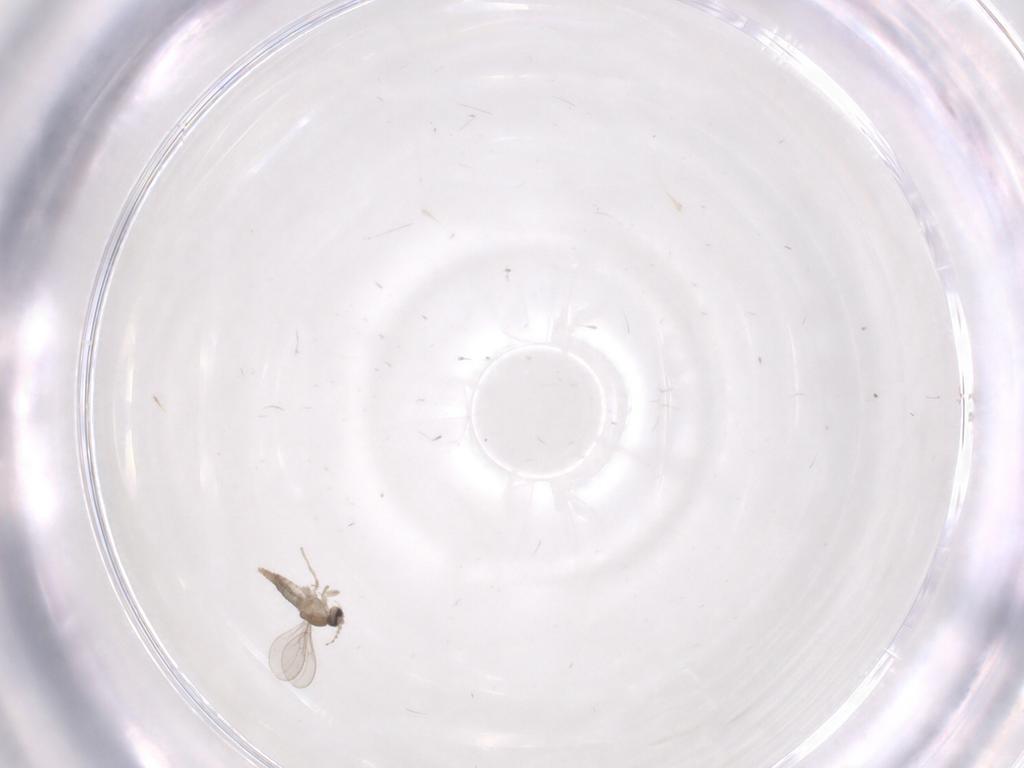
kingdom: Animalia
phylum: Arthropoda
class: Insecta
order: Diptera
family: Cecidomyiidae
